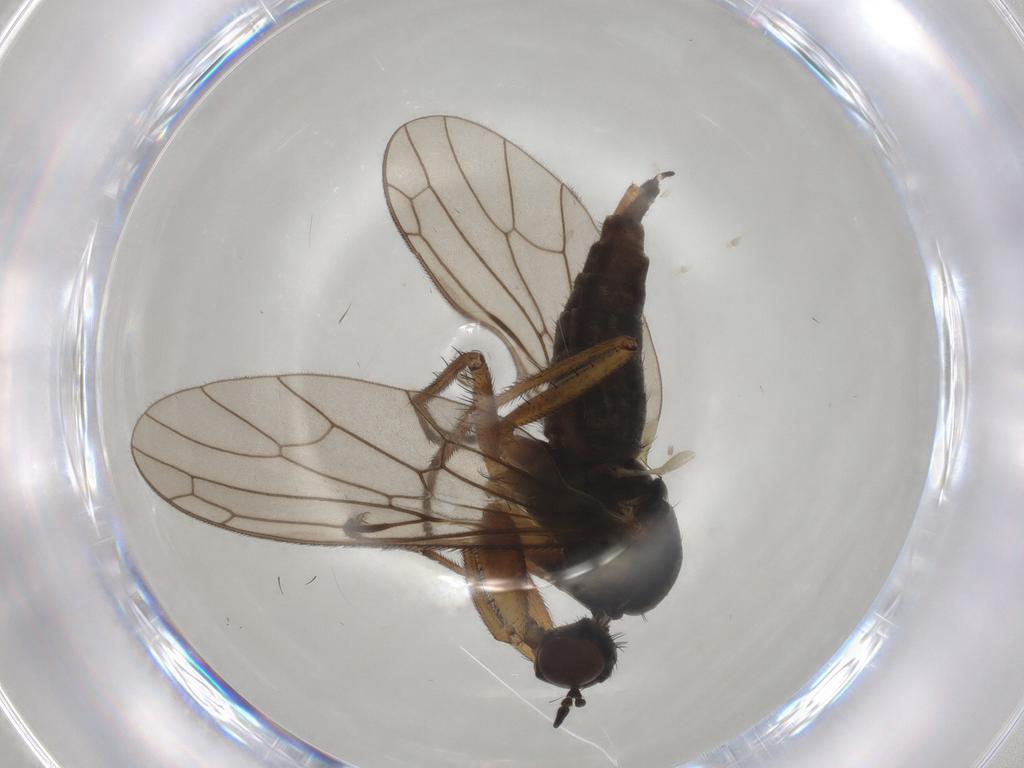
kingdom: Animalia
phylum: Arthropoda
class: Insecta
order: Diptera
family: Empididae
